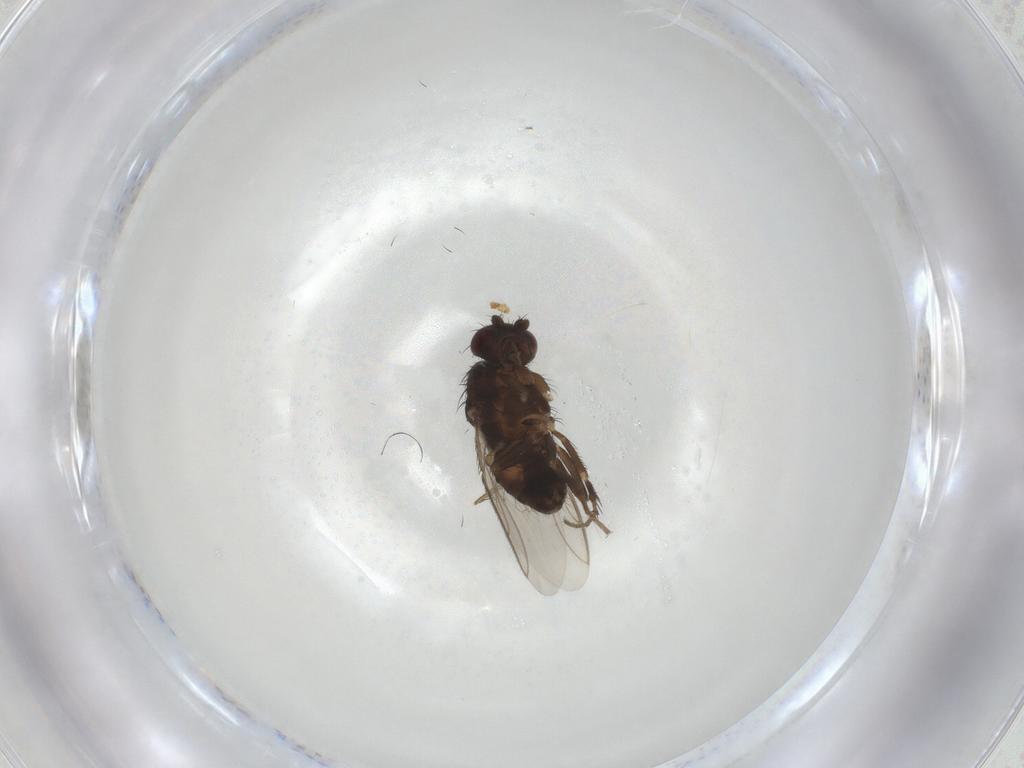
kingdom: Animalia
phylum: Arthropoda
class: Insecta
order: Diptera
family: Sphaeroceridae
